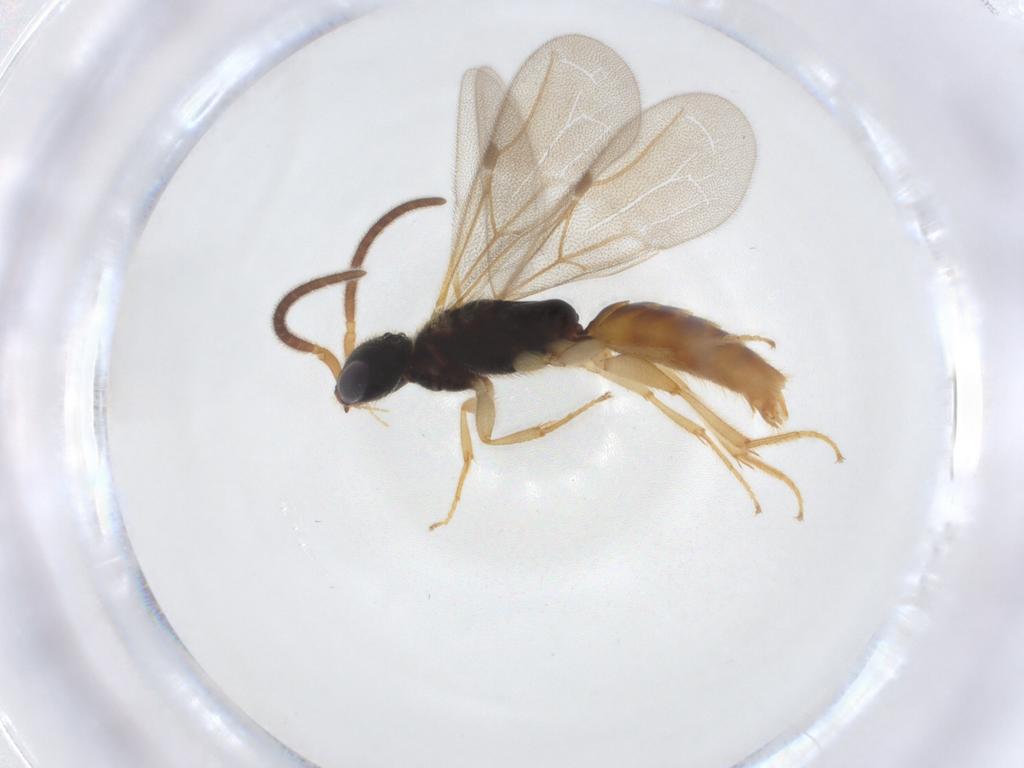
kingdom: Animalia
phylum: Arthropoda
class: Insecta
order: Hymenoptera
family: Bethylidae
